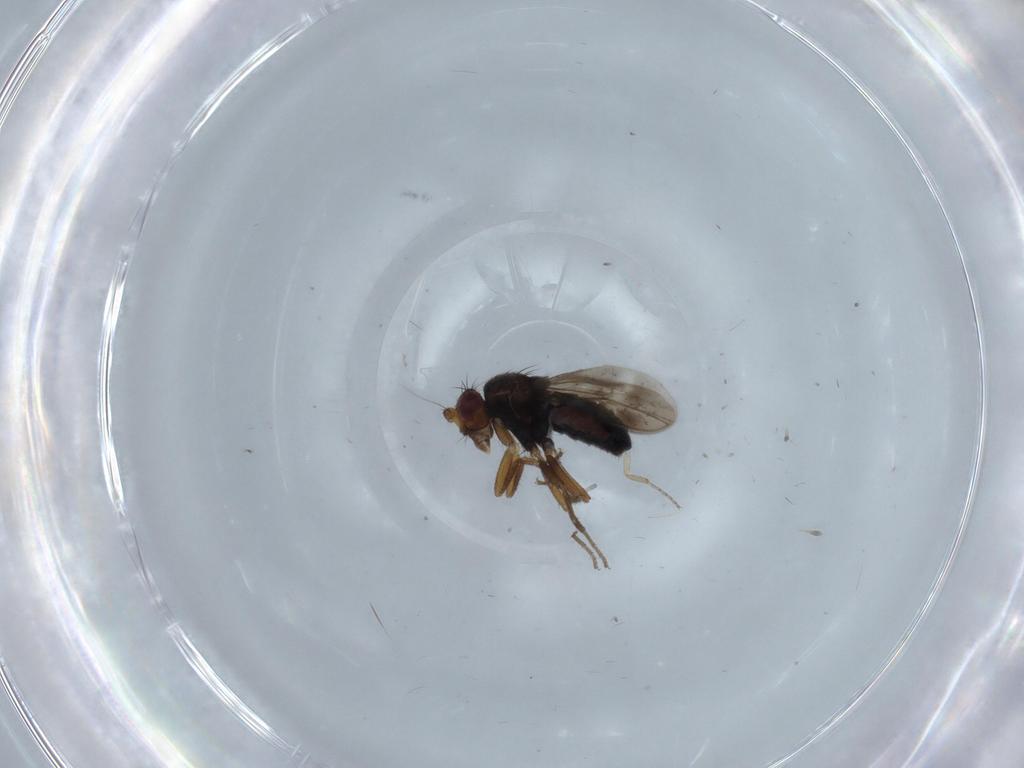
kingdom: Animalia
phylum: Arthropoda
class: Insecta
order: Diptera
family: Sphaeroceridae
